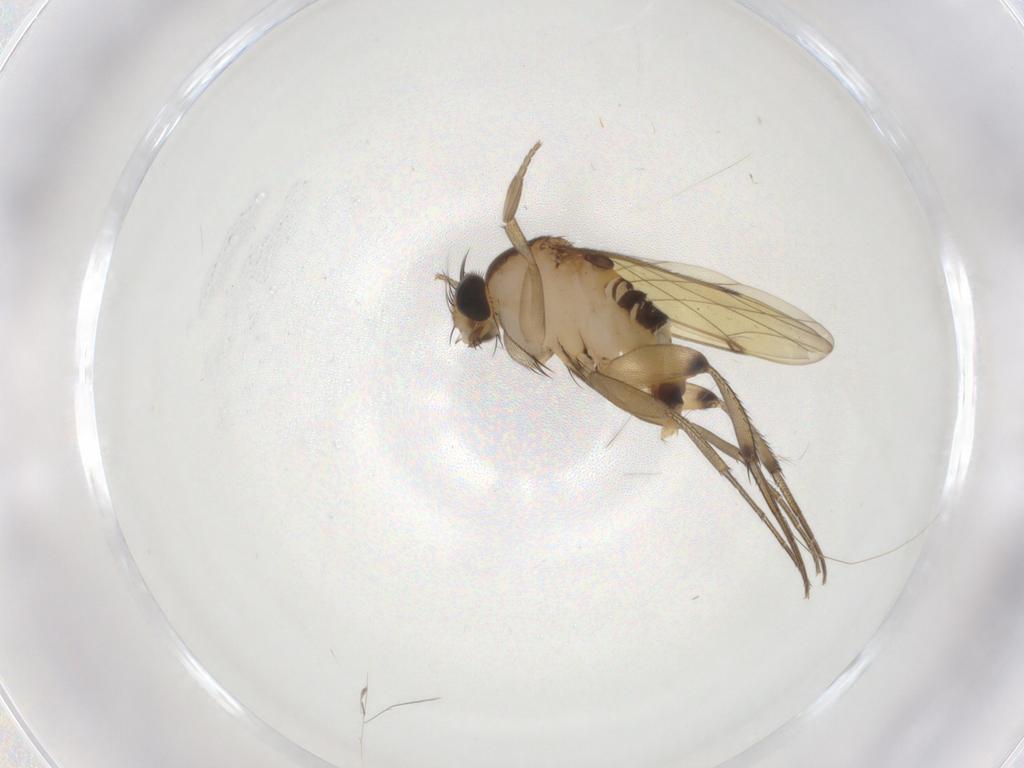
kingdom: Animalia
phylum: Arthropoda
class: Insecta
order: Diptera
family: Phoridae
